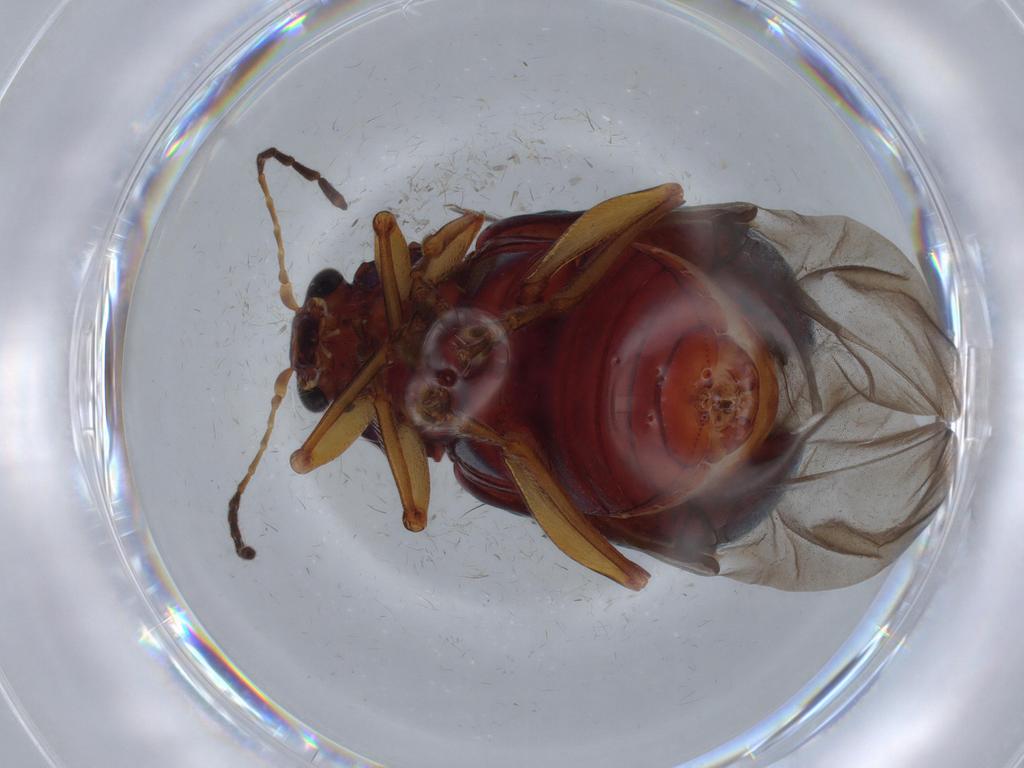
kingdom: Animalia
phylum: Arthropoda
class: Insecta
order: Coleoptera
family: Chrysomelidae
